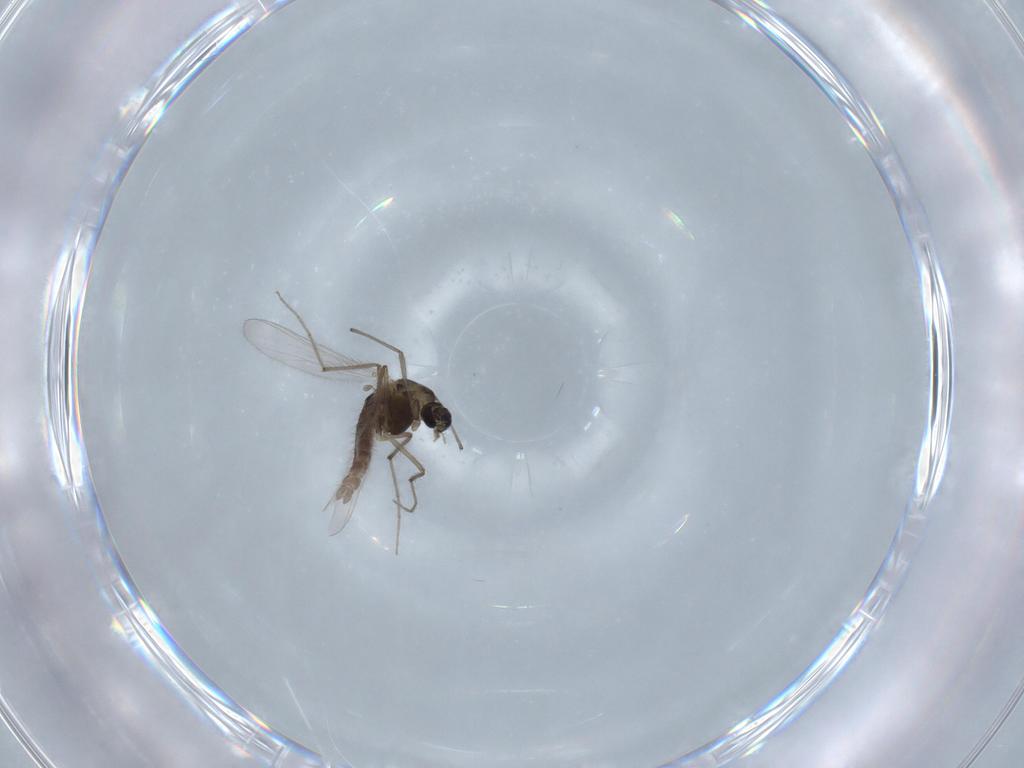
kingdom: Animalia
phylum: Arthropoda
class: Insecta
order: Diptera
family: Chironomidae
